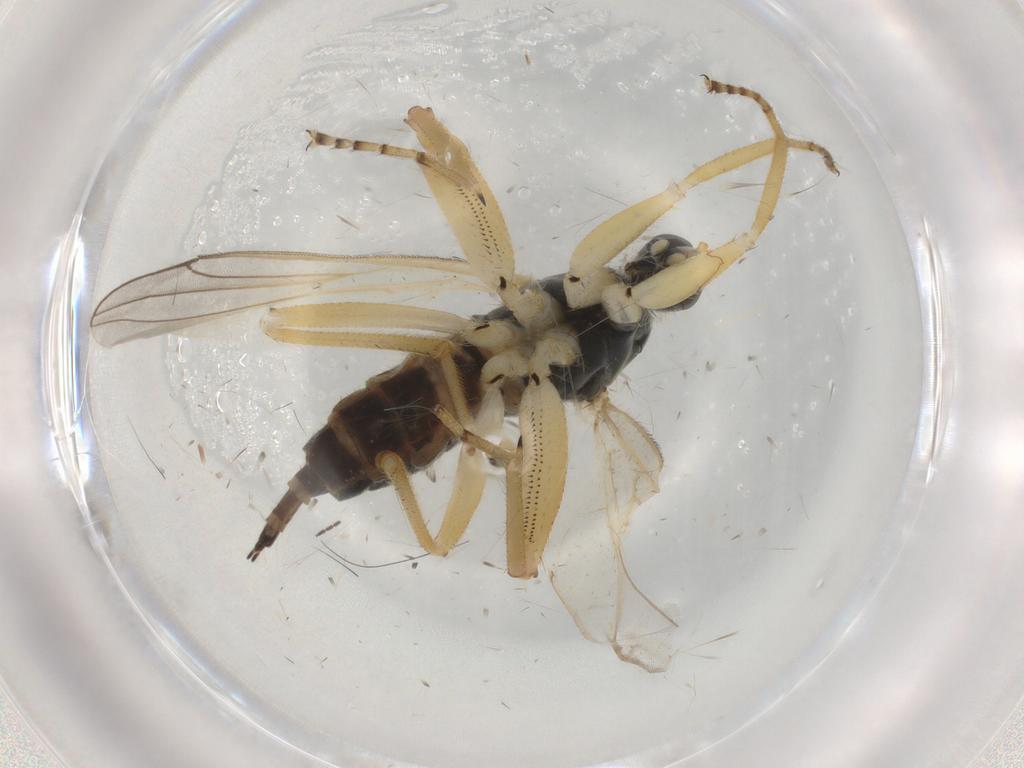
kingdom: Animalia
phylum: Arthropoda
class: Insecta
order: Diptera
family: Hybotidae
